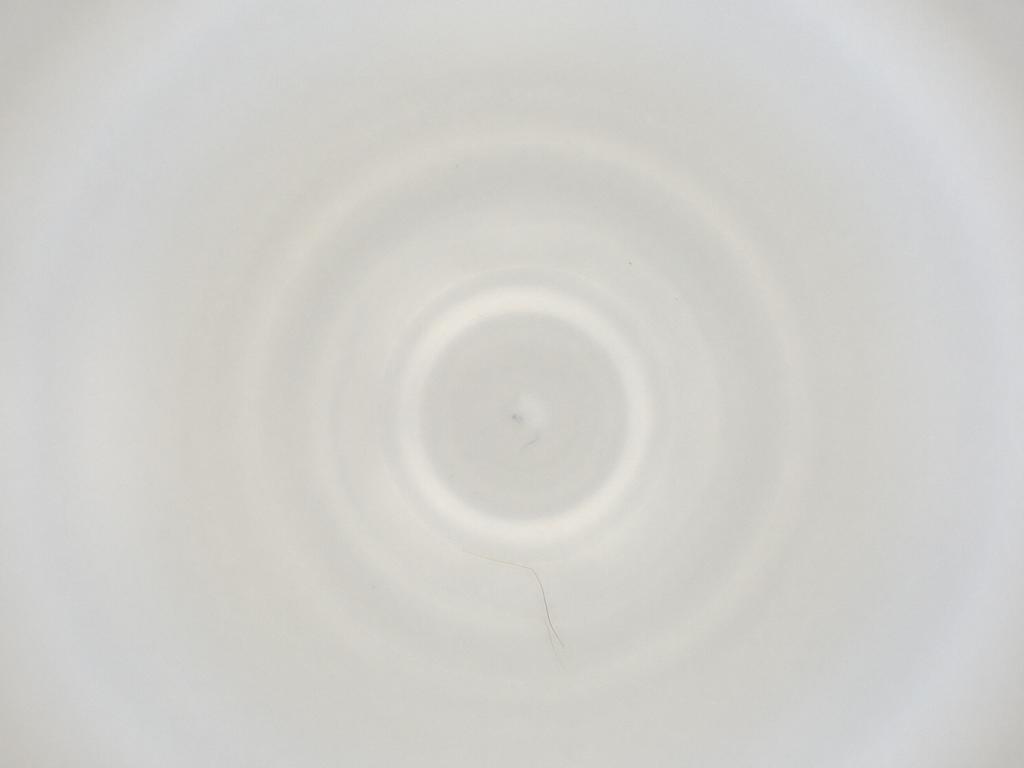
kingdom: Animalia
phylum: Arthropoda
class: Insecta
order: Diptera
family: Cecidomyiidae
